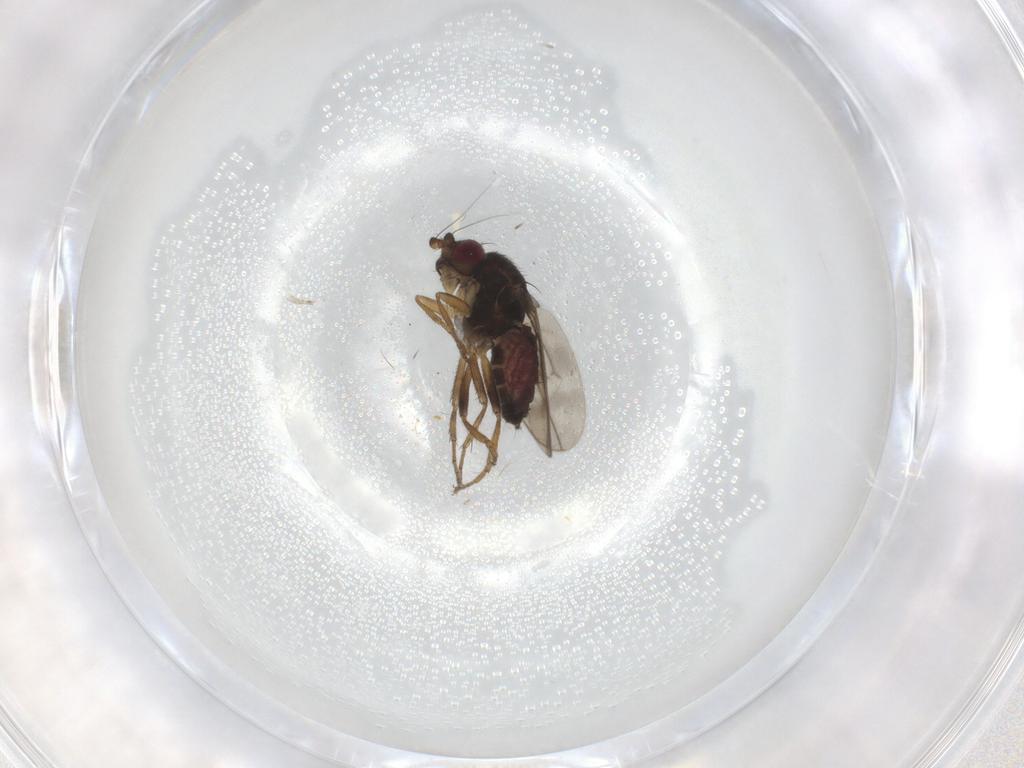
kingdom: Animalia
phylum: Arthropoda
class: Insecta
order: Diptera
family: Sphaeroceridae
